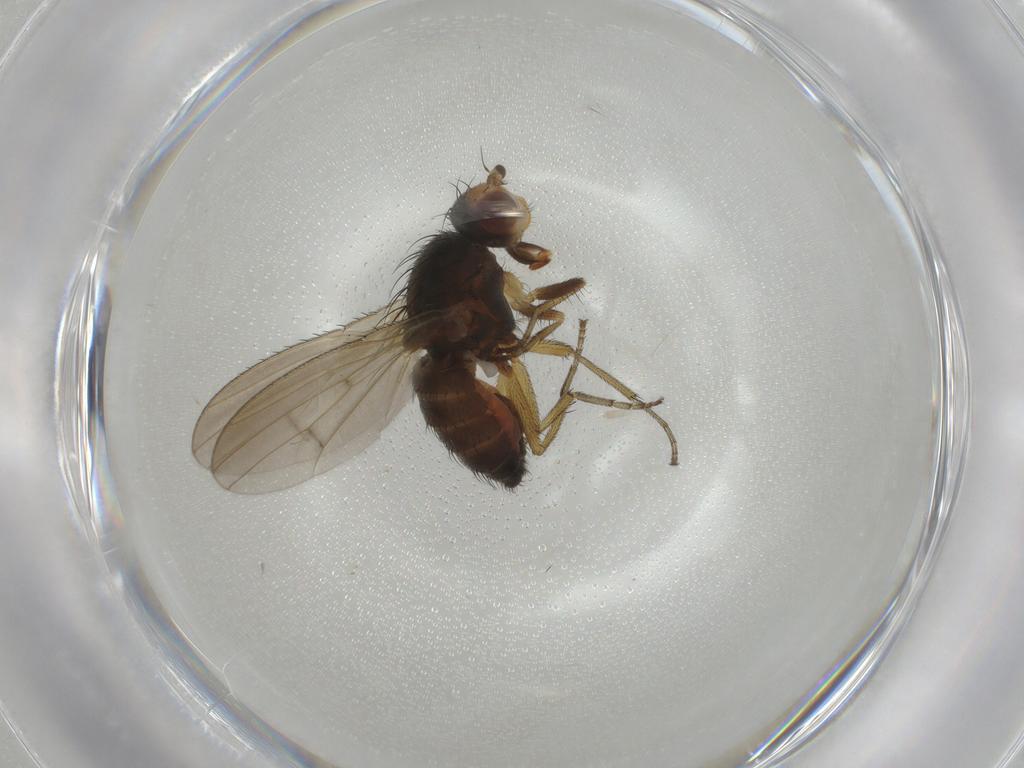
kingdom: Animalia
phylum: Arthropoda
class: Insecta
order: Diptera
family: Heleomyzidae
